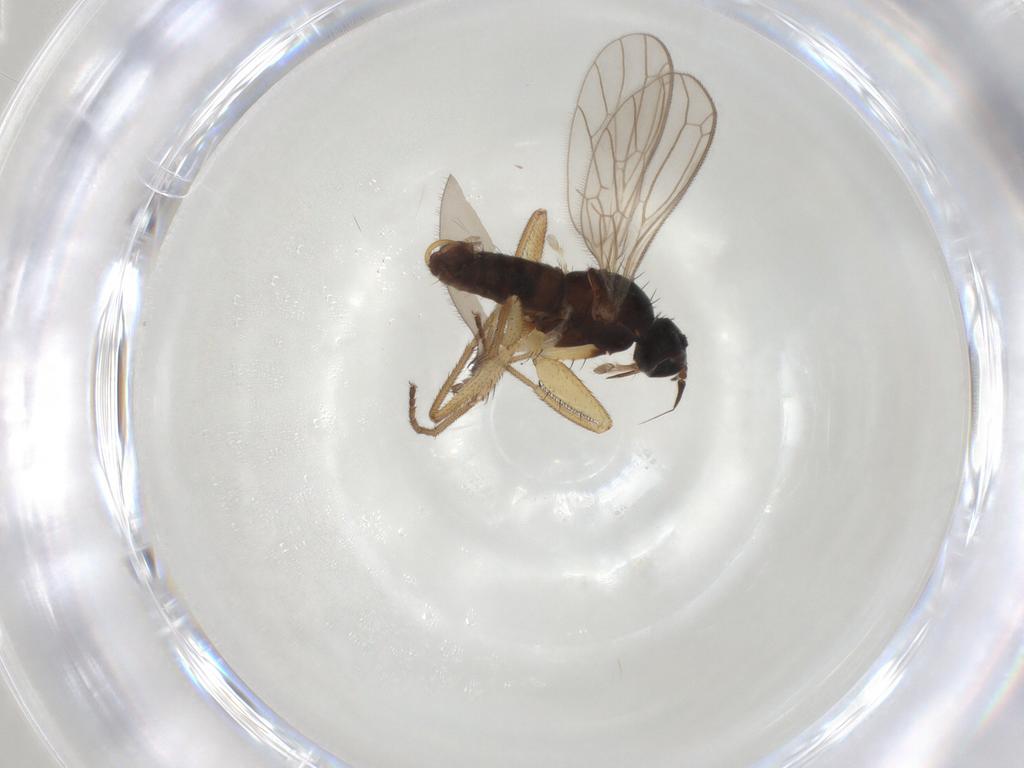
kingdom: Animalia
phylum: Arthropoda
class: Insecta
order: Diptera
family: Phoridae
